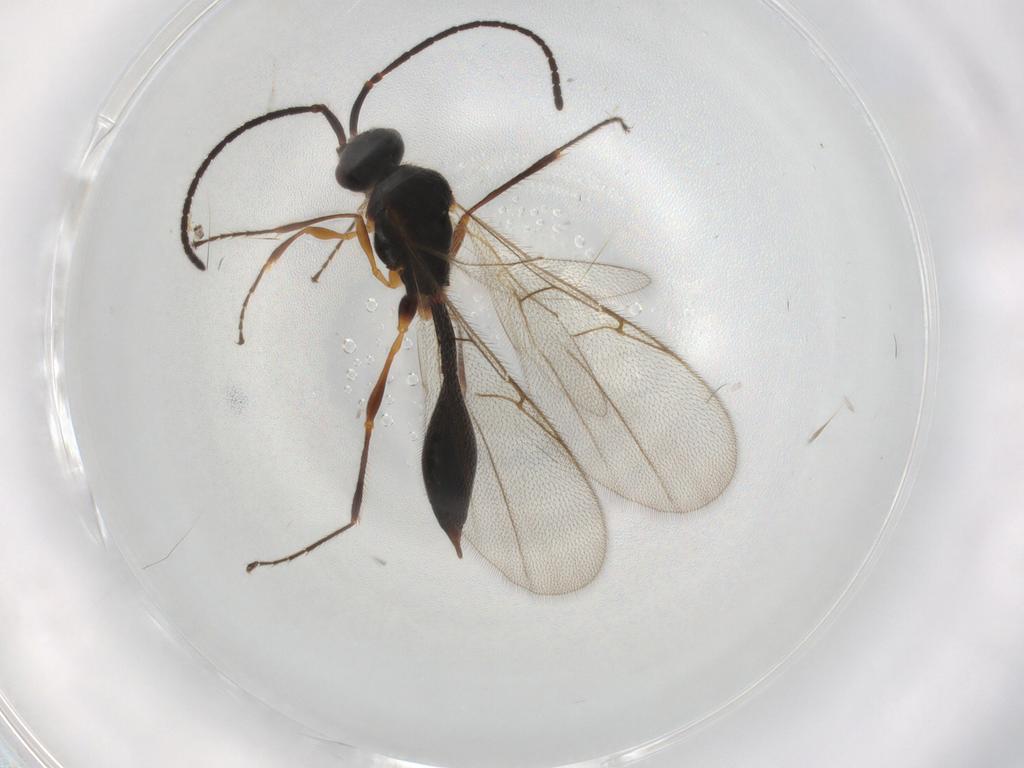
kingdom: Animalia
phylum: Arthropoda
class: Insecta
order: Hymenoptera
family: Diapriidae
